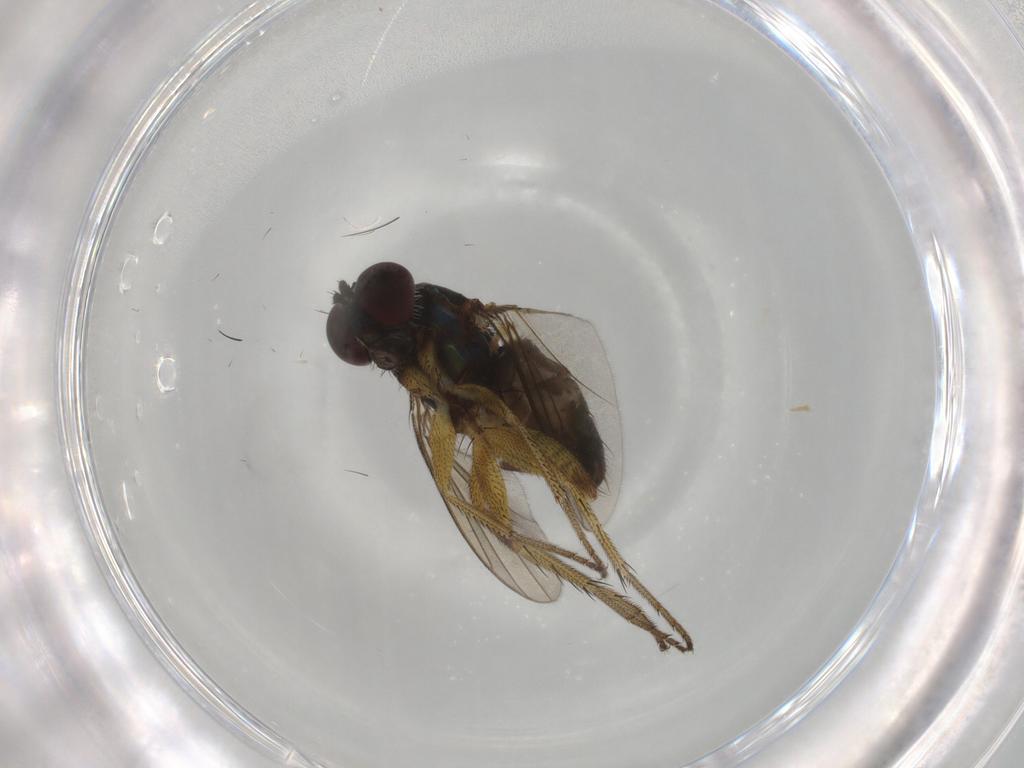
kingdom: Animalia
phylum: Arthropoda
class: Insecta
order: Diptera
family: Dolichopodidae
